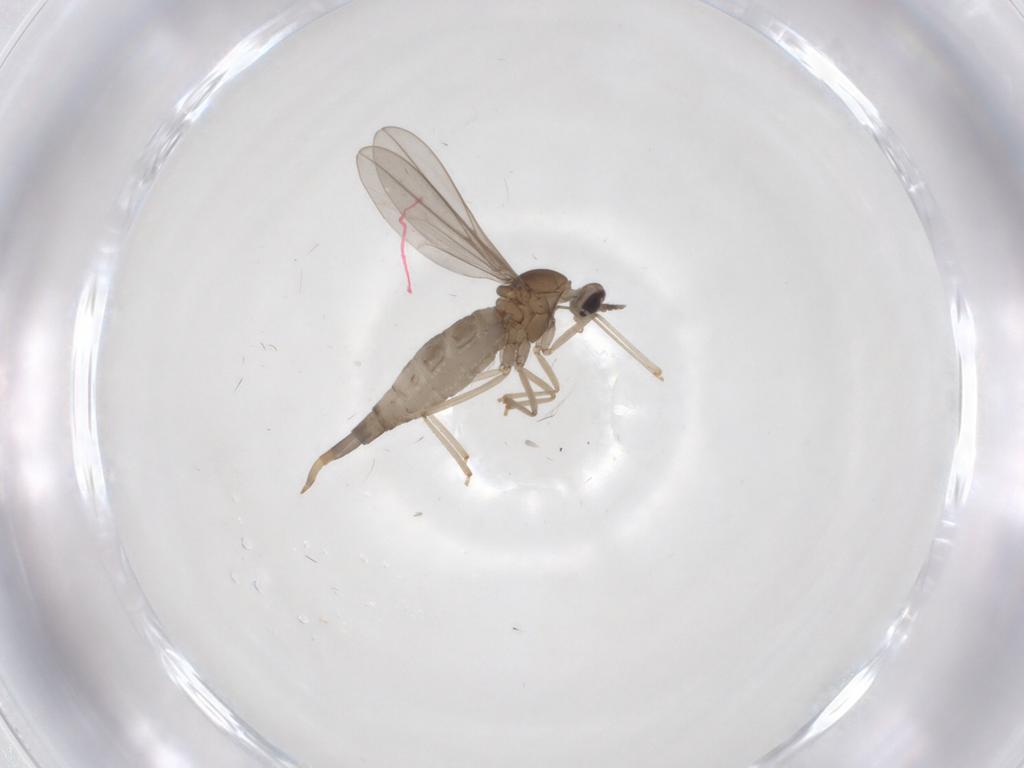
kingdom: Animalia
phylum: Arthropoda
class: Insecta
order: Diptera
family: Cecidomyiidae
